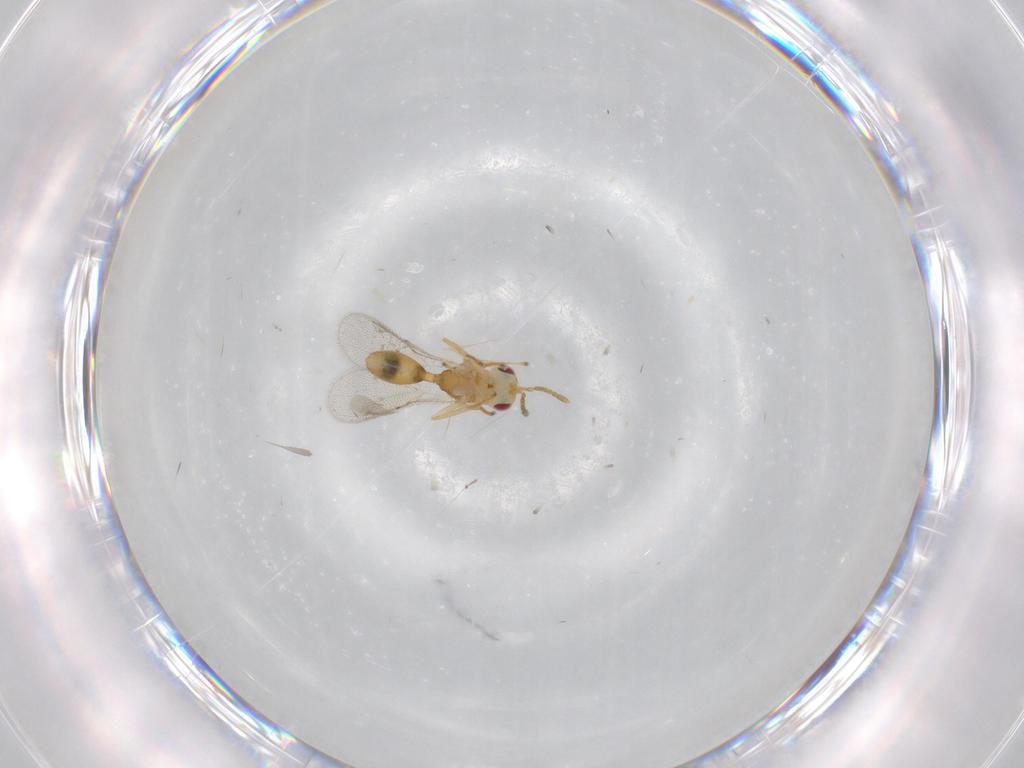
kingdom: Animalia
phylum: Arthropoda
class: Insecta
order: Hymenoptera
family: Eurytomidae
